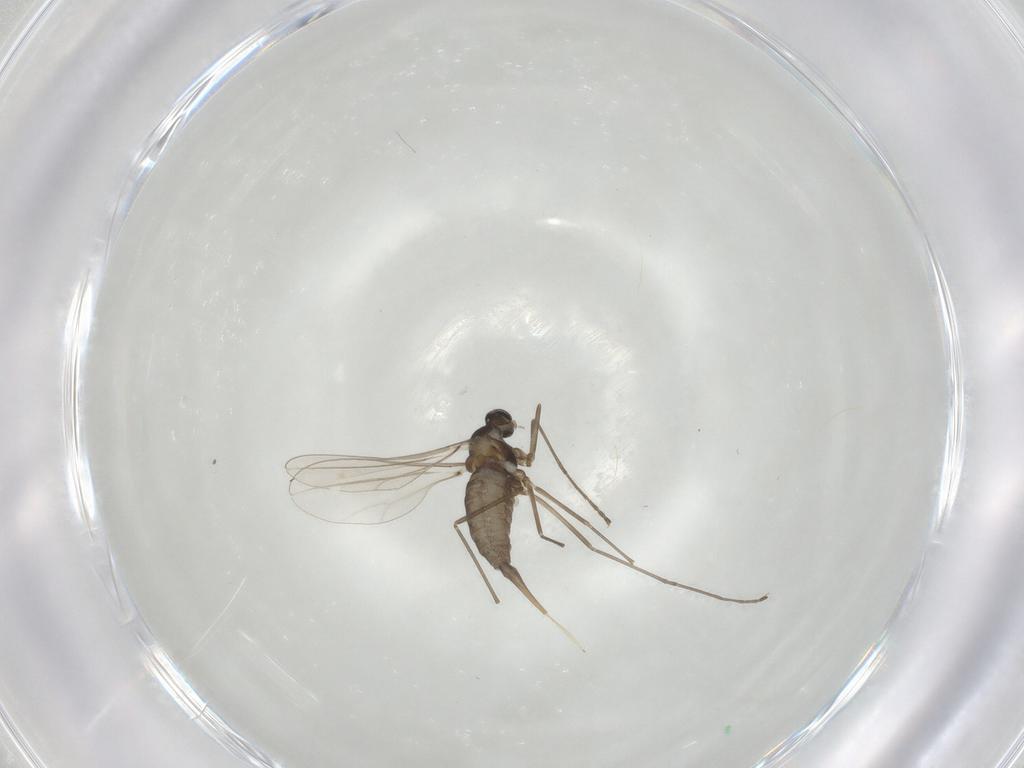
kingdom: Animalia
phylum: Arthropoda
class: Insecta
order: Diptera
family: Cecidomyiidae
